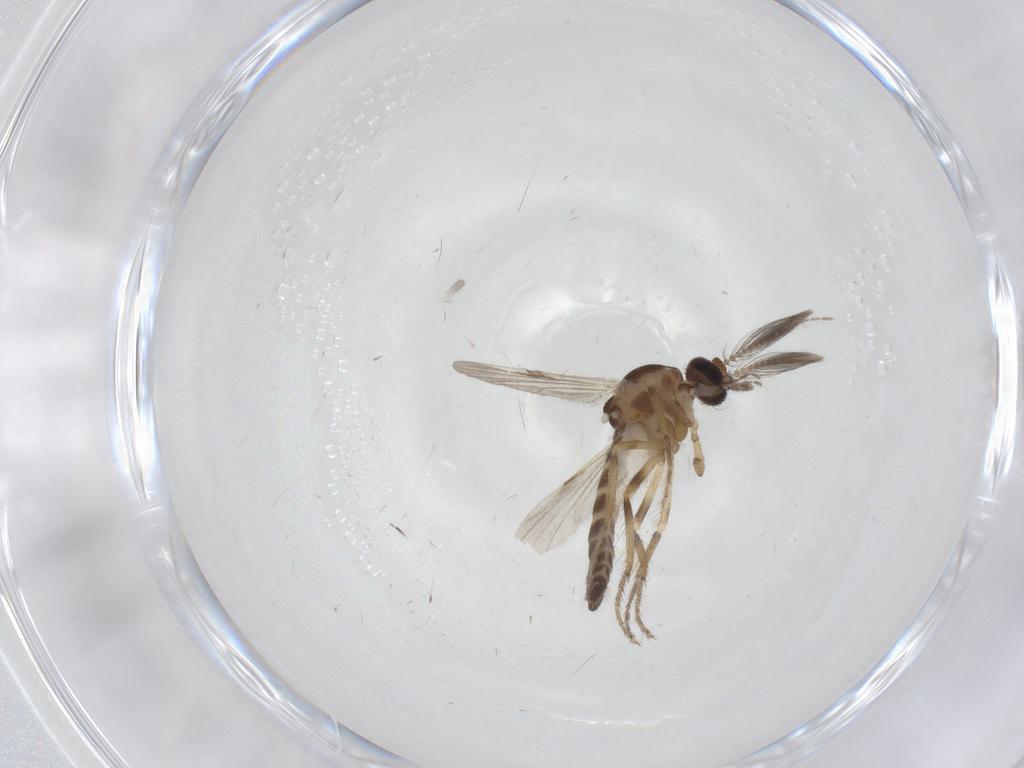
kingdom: Animalia
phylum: Arthropoda
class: Insecta
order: Diptera
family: Ceratopogonidae
